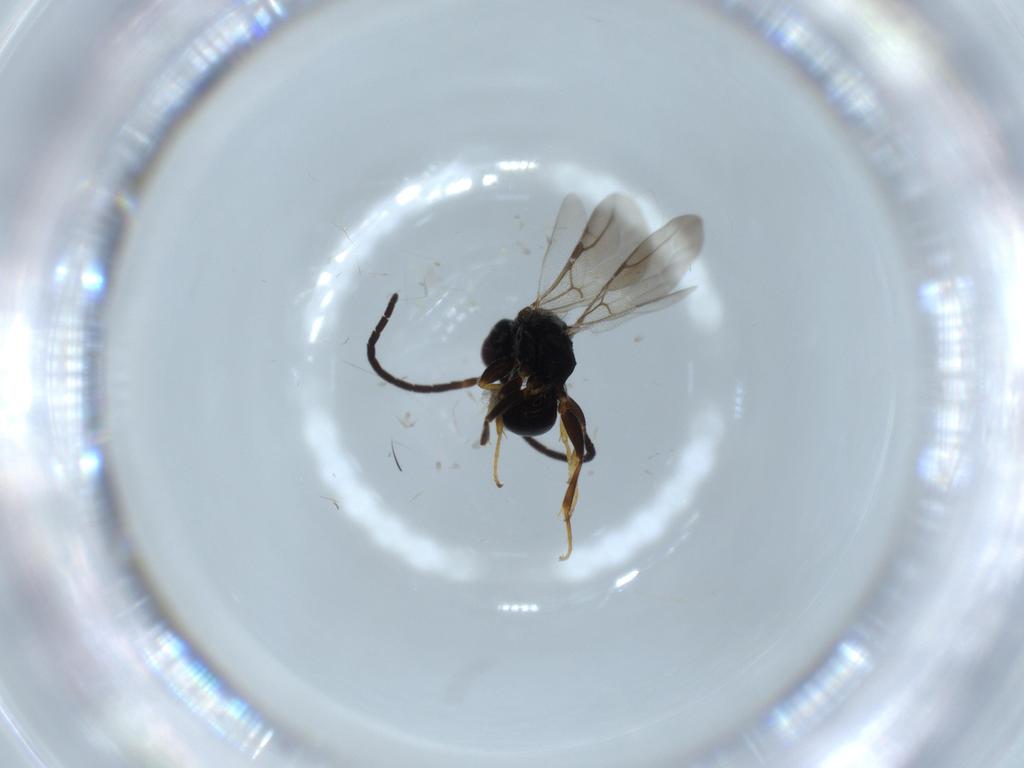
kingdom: Animalia
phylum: Arthropoda
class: Insecta
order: Hymenoptera
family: Bethylidae
